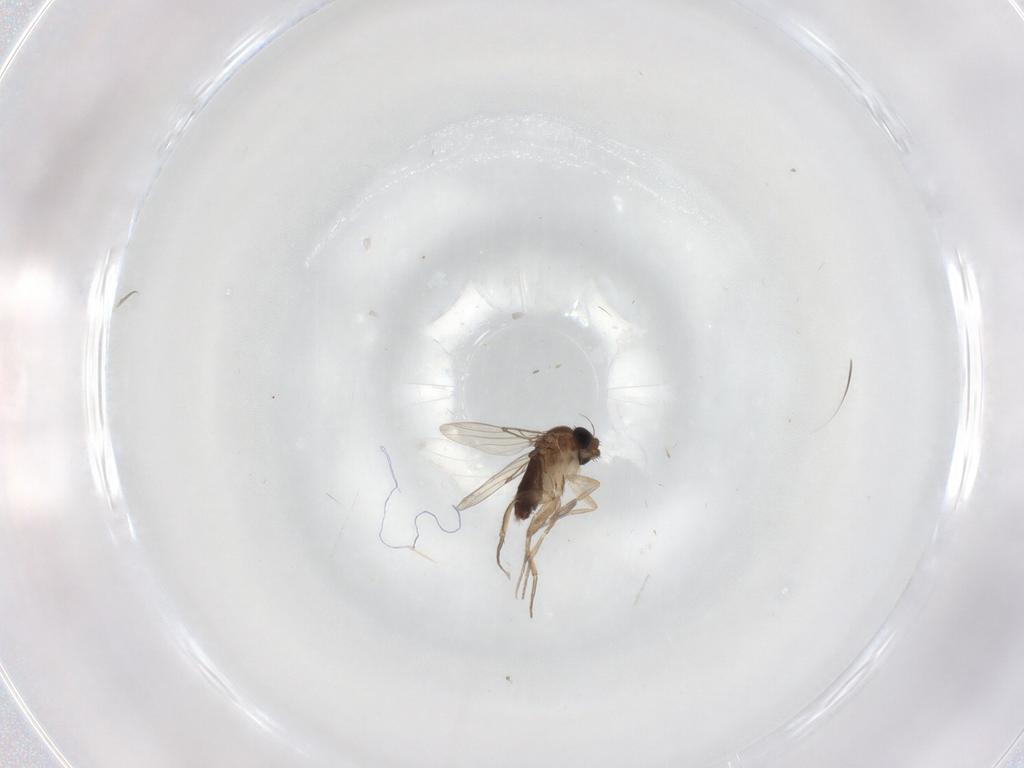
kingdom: Animalia
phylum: Arthropoda
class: Insecta
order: Diptera
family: Phoridae
